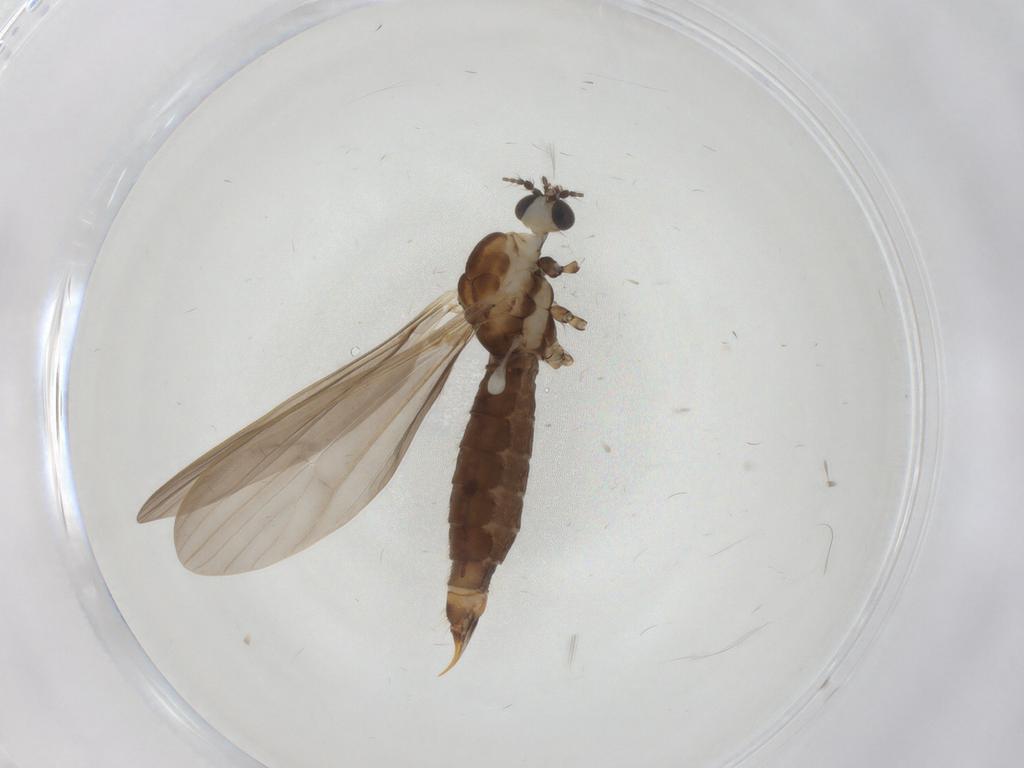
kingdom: Animalia
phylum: Arthropoda
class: Insecta
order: Diptera
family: Limoniidae
